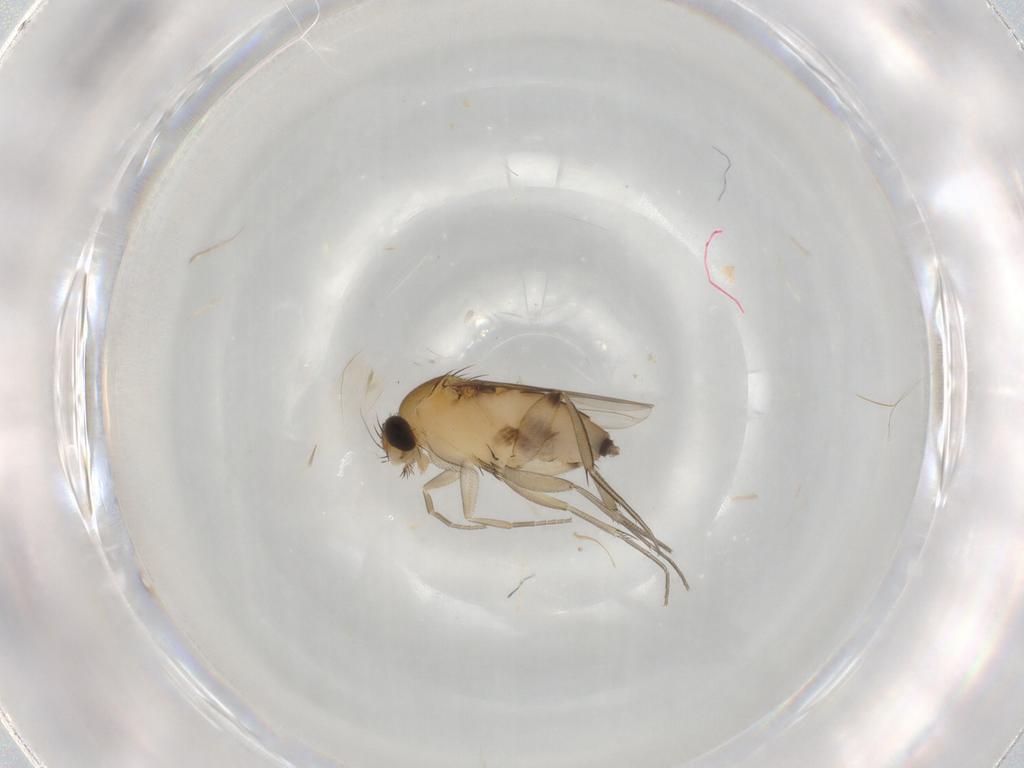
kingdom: Animalia
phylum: Arthropoda
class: Insecta
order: Diptera
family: Phoridae
